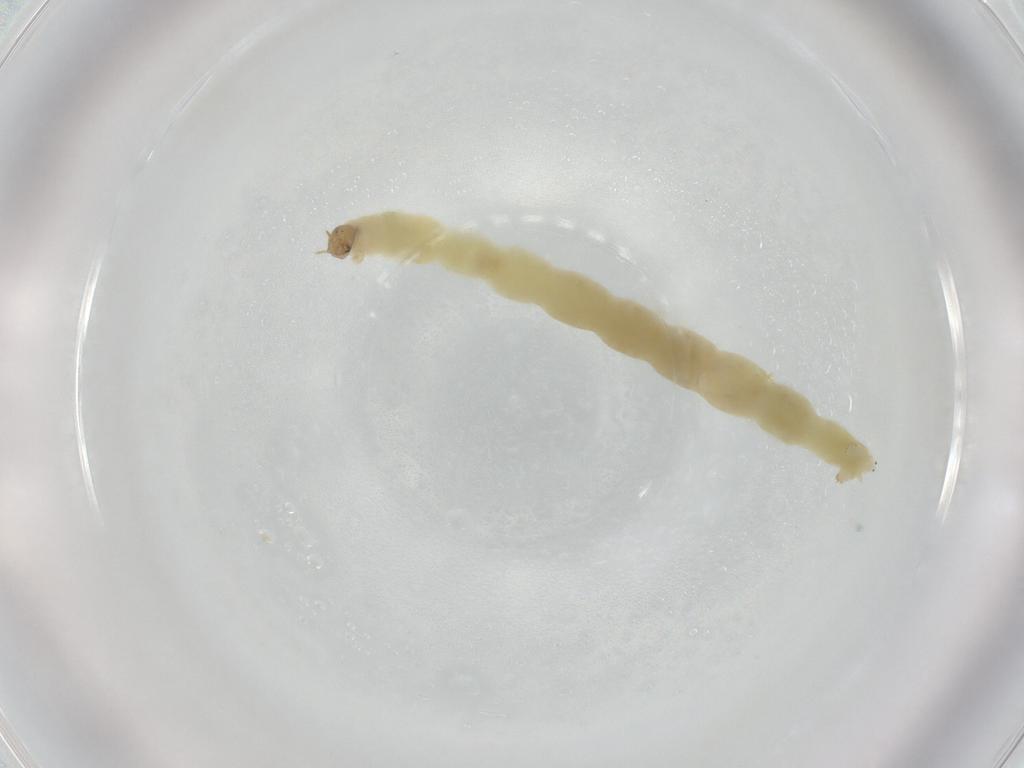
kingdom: Animalia
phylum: Arthropoda
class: Insecta
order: Diptera
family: Chironomidae
